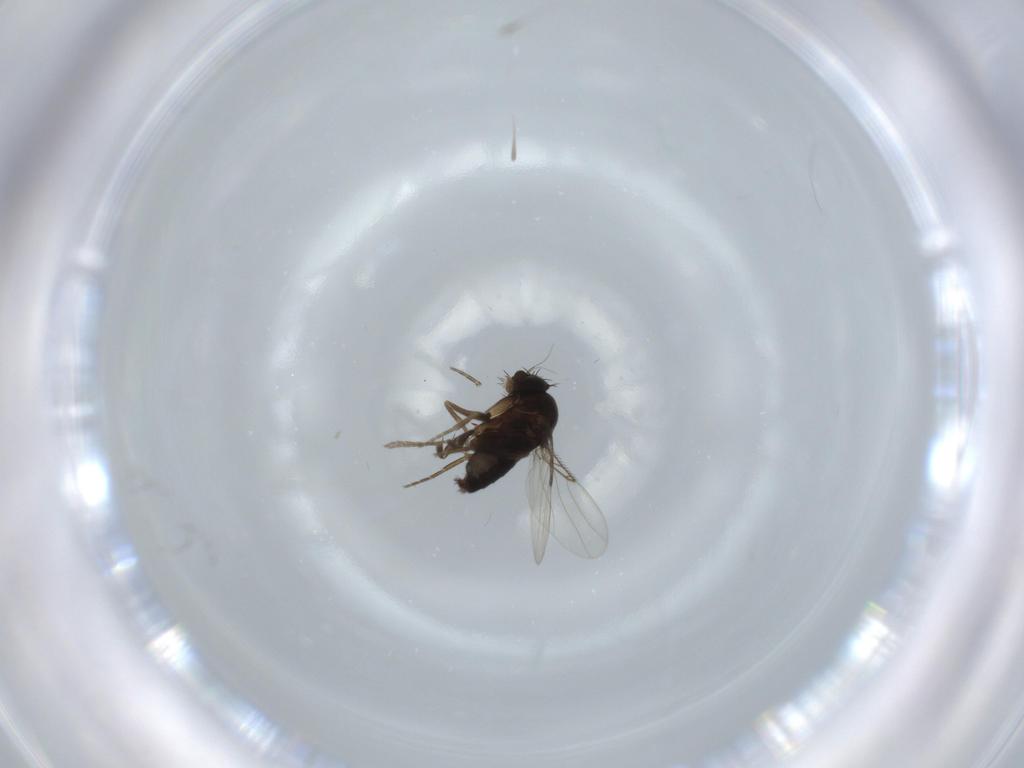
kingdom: Animalia
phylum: Arthropoda
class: Insecta
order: Diptera
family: Phoridae
